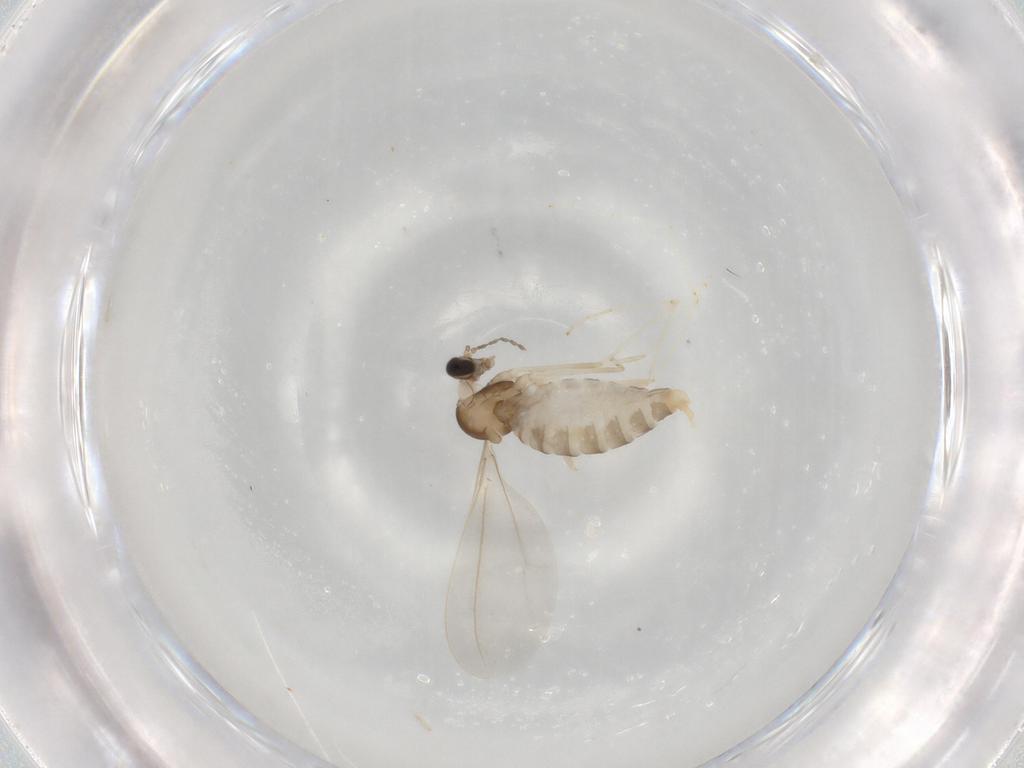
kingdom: Animalia
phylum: Arthropoda
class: Insecta
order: Diptera
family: Cecidomyiidae
